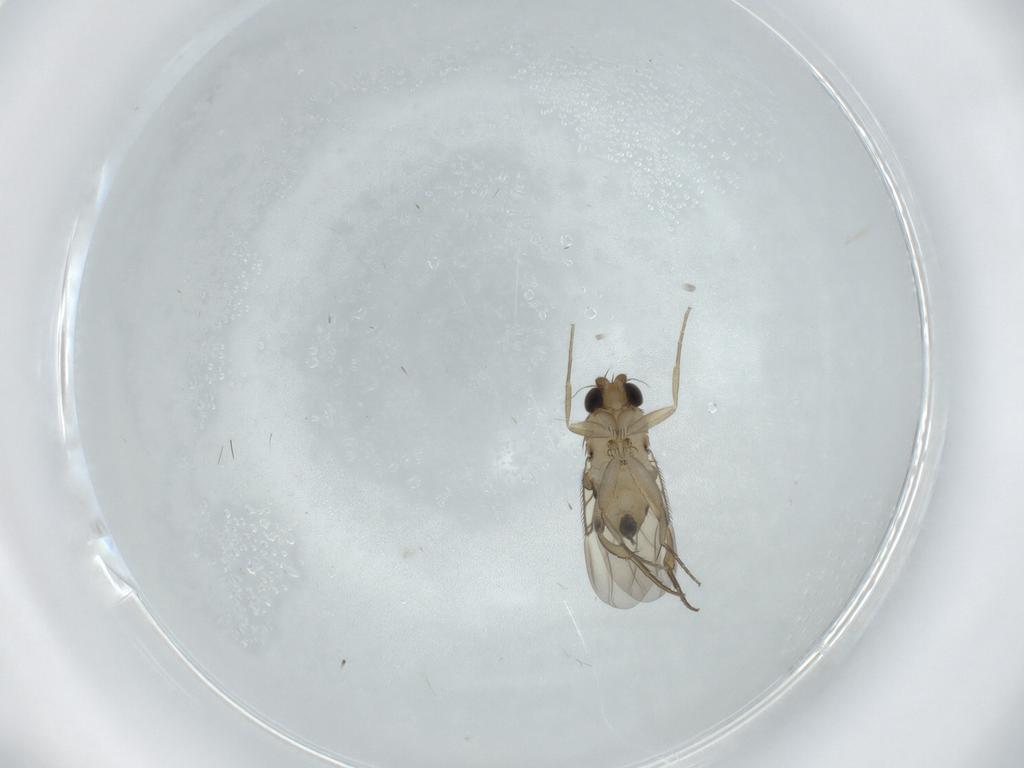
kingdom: Animalia
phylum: Arthropoda
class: Insecta
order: Diptera
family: Phoridae
